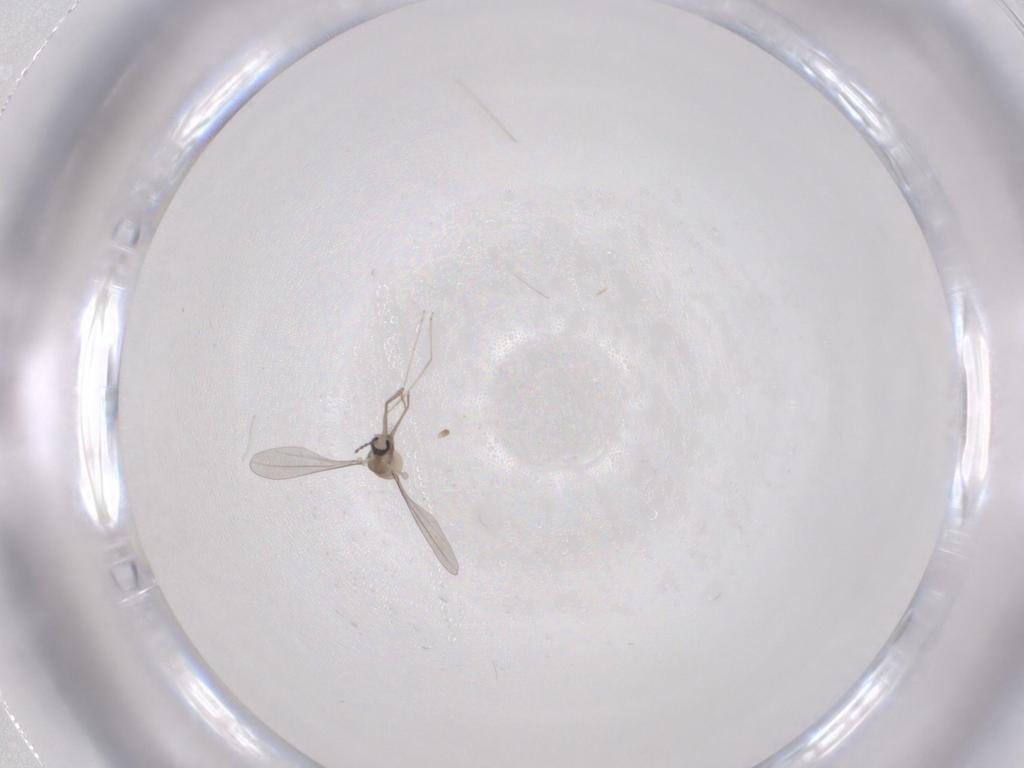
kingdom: Animalia
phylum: Arthropoda
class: Insecta
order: Diptera
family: Cecidomyiidae
